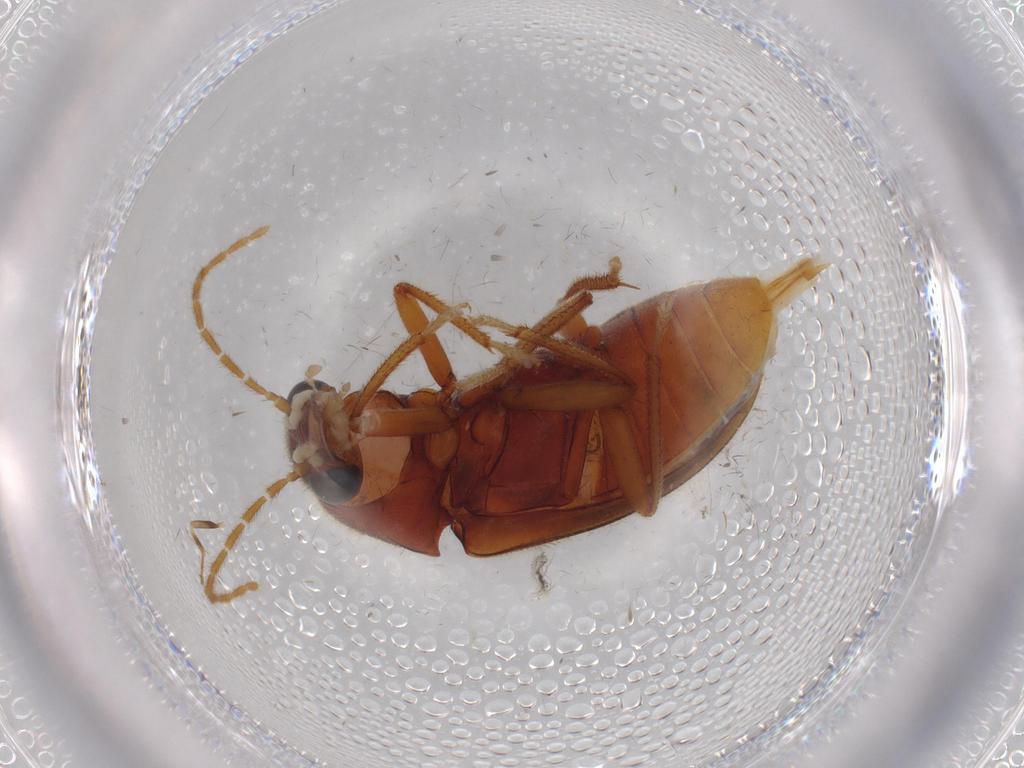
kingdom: Animalia
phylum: Arthropoda
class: Insecta
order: Coleoptera
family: Ptilodactylidae
